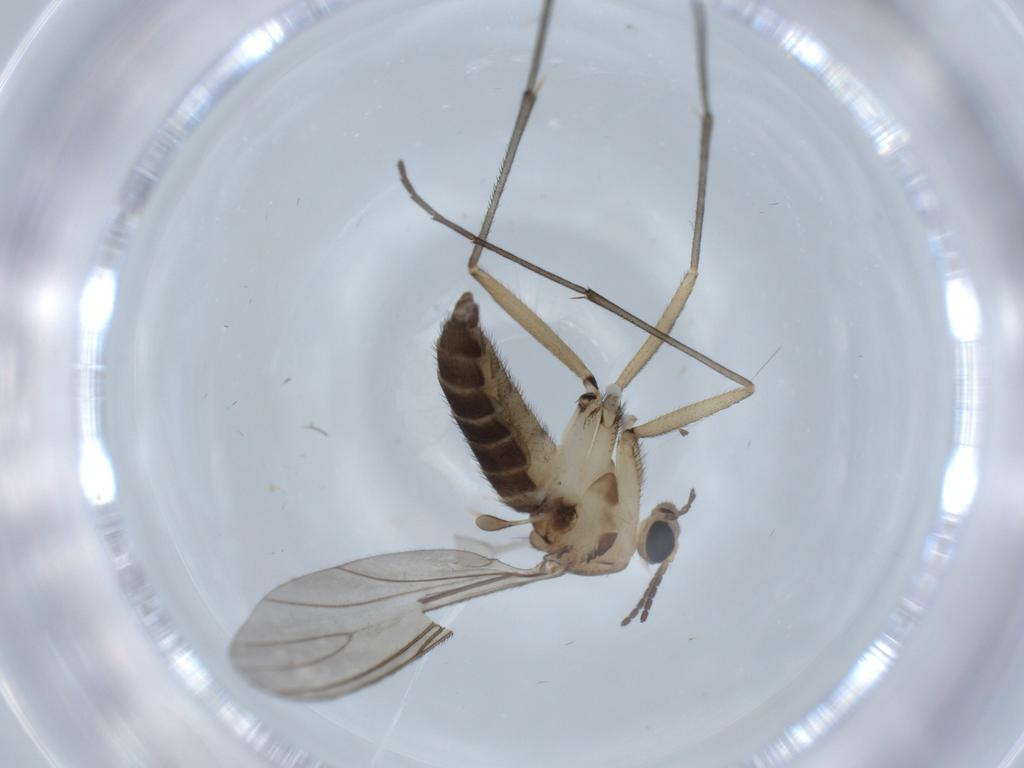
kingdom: Animalia
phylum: Arthropoda
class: Insecta
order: Diptera
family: Sciaridae
